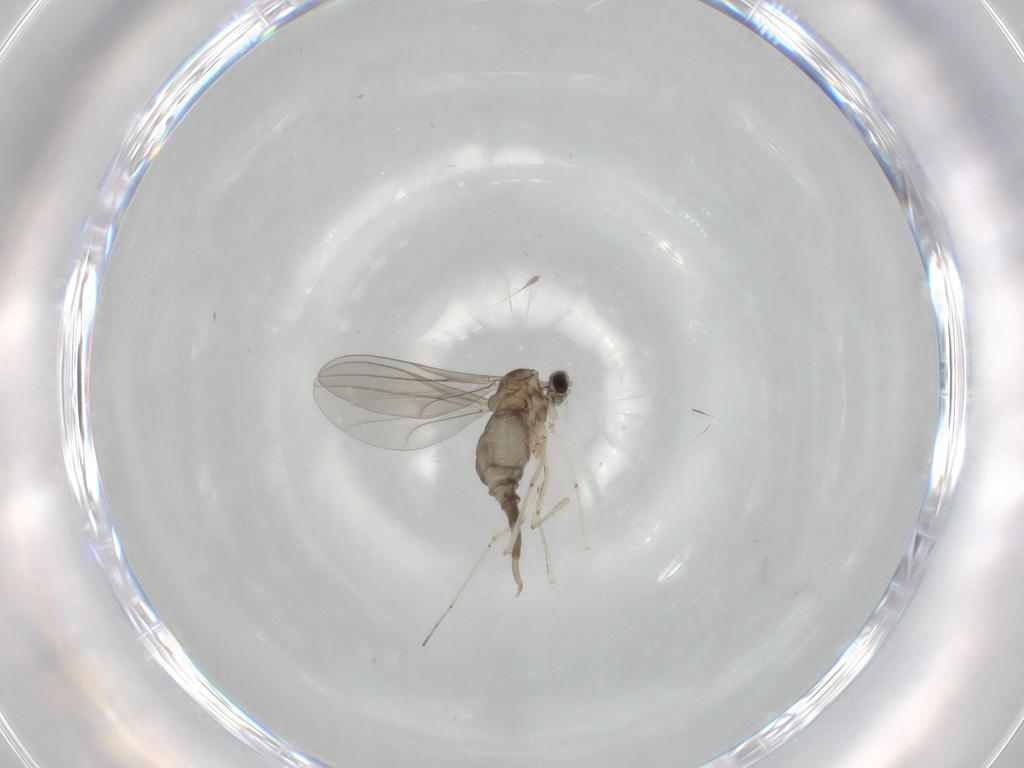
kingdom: Animalia
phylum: Arthropoda
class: Insecta
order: Diptera
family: Cecidomyiidae
